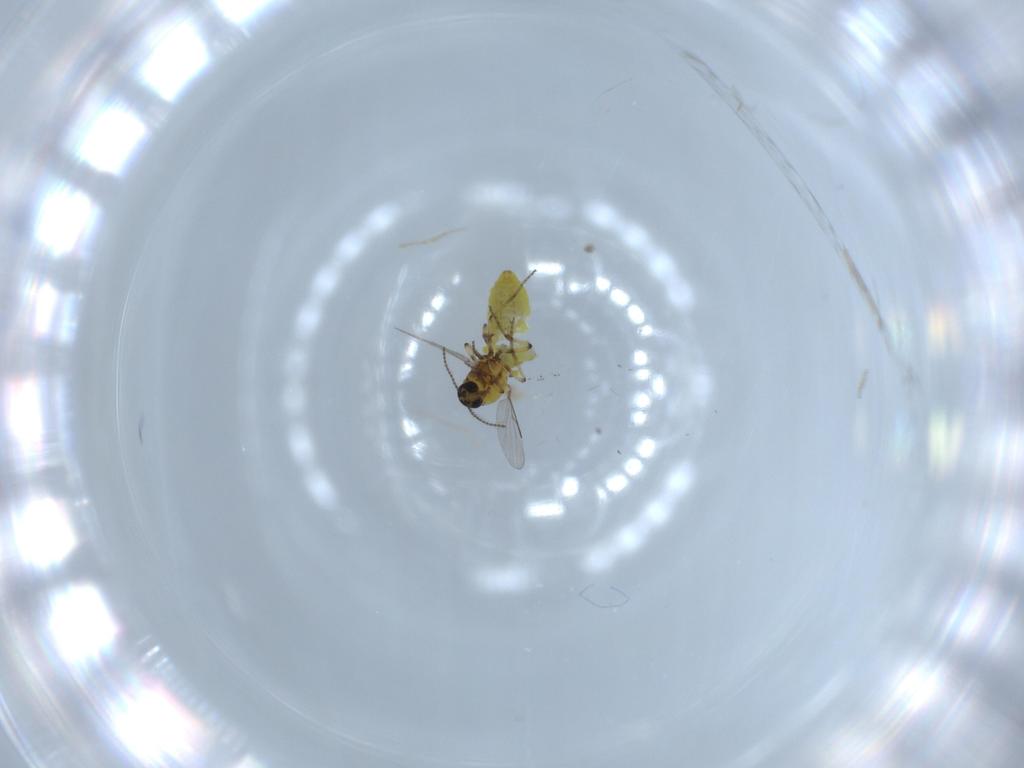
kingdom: Animalia
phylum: Arthropoda
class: Insecta
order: Diptera
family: Ceratopogonidae
